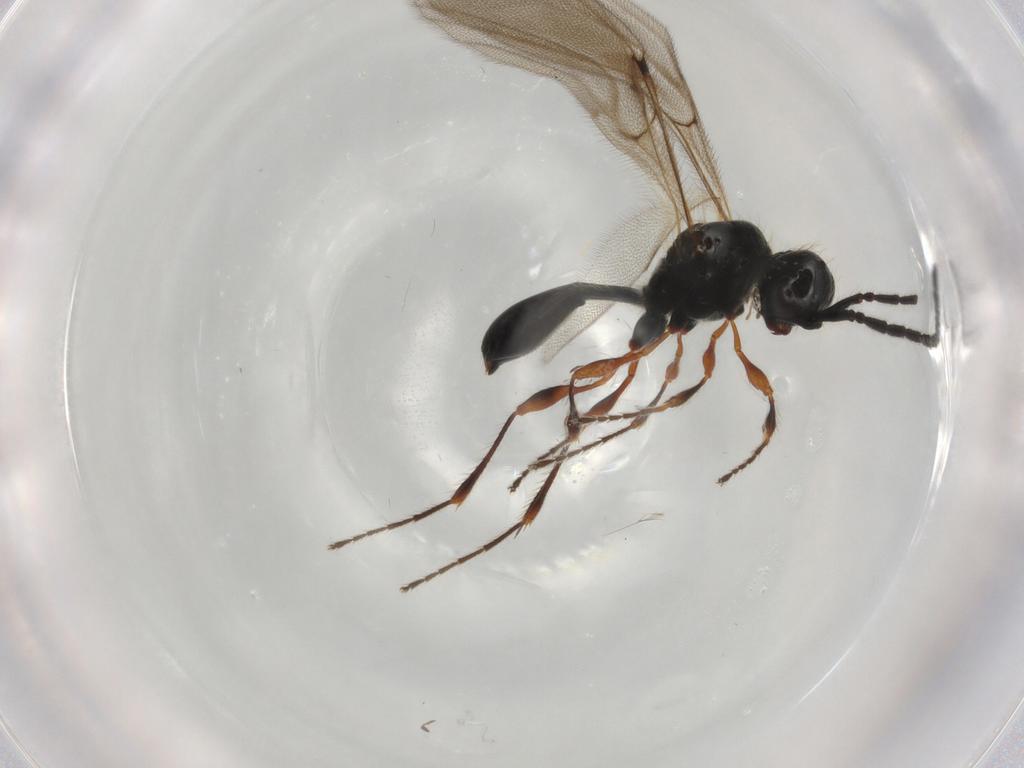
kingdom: Animalia
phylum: Arthropoda
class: Insecta
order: Hymenoptera
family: Diapriidae
